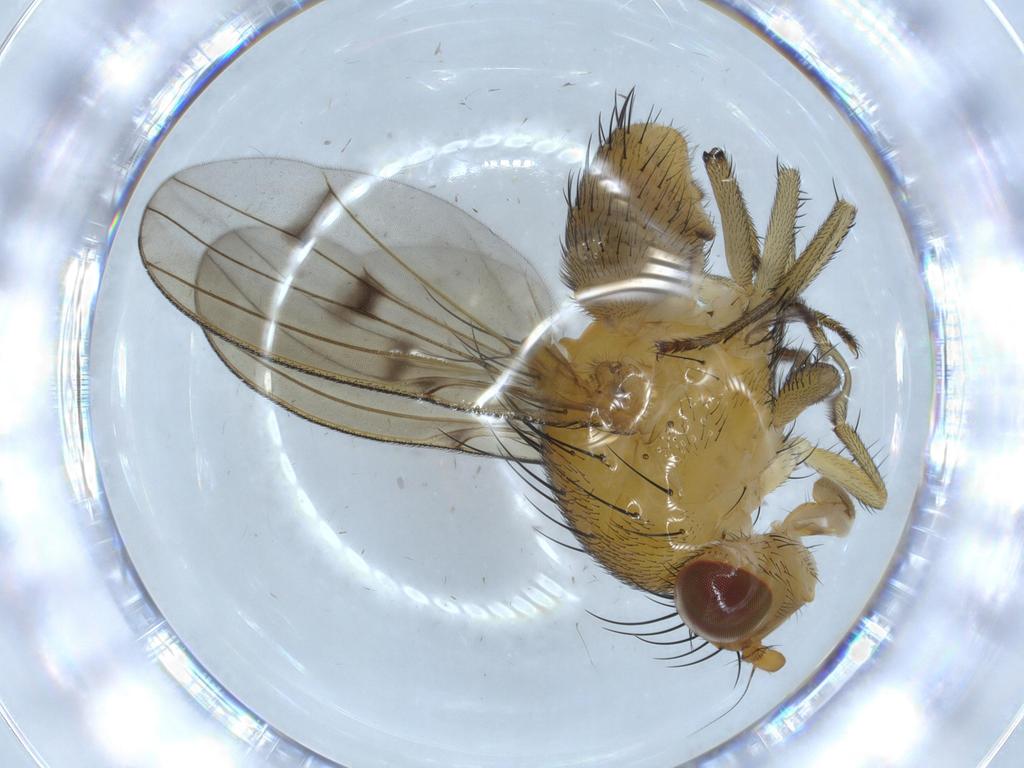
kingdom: Animalia
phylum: Arthropoda
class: Insecta
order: Diptera
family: Chironomidae
